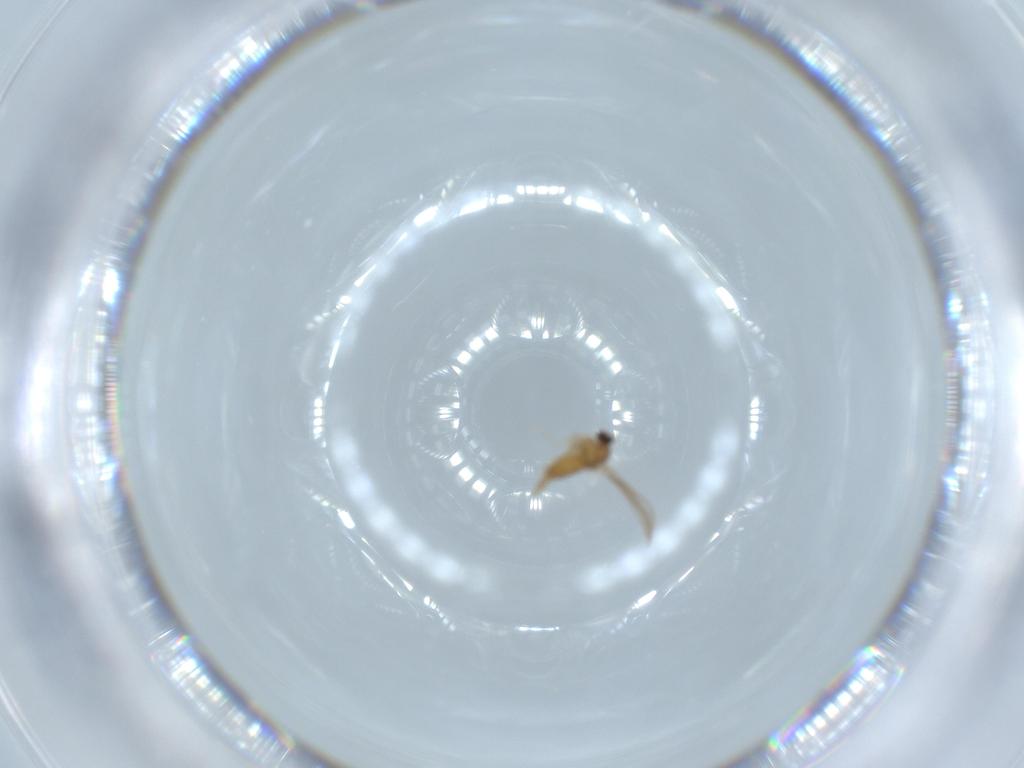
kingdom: Animalia
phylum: Arthropoda
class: Insecta
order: Diptera
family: Cecidomyiidae
